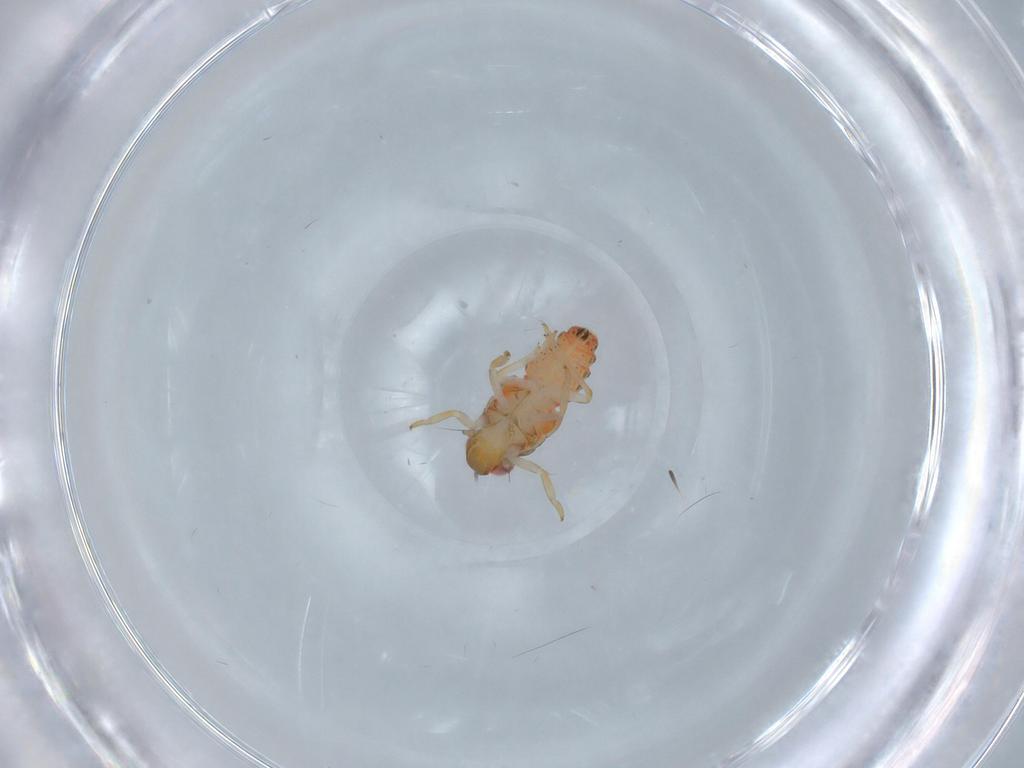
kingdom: Animalia
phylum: Arthropoda
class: Insecta
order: Hemiptera
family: Issidae
